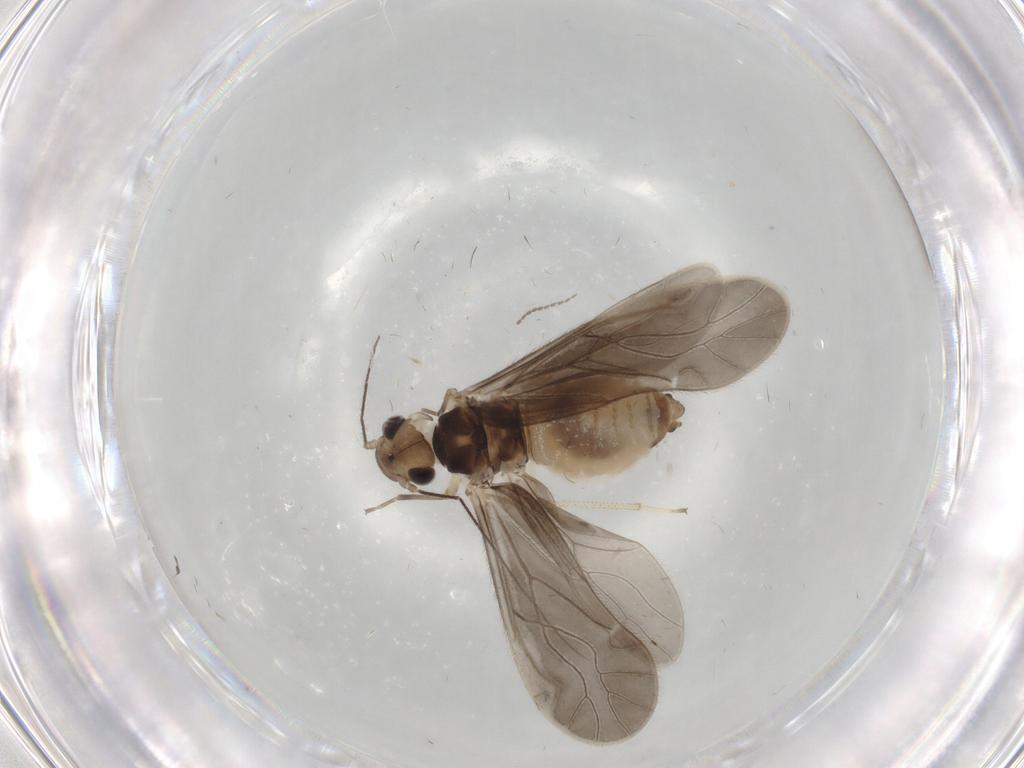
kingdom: Animalia
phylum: Arthropoda
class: Insecta
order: Psocodea
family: Caeciliusidae
